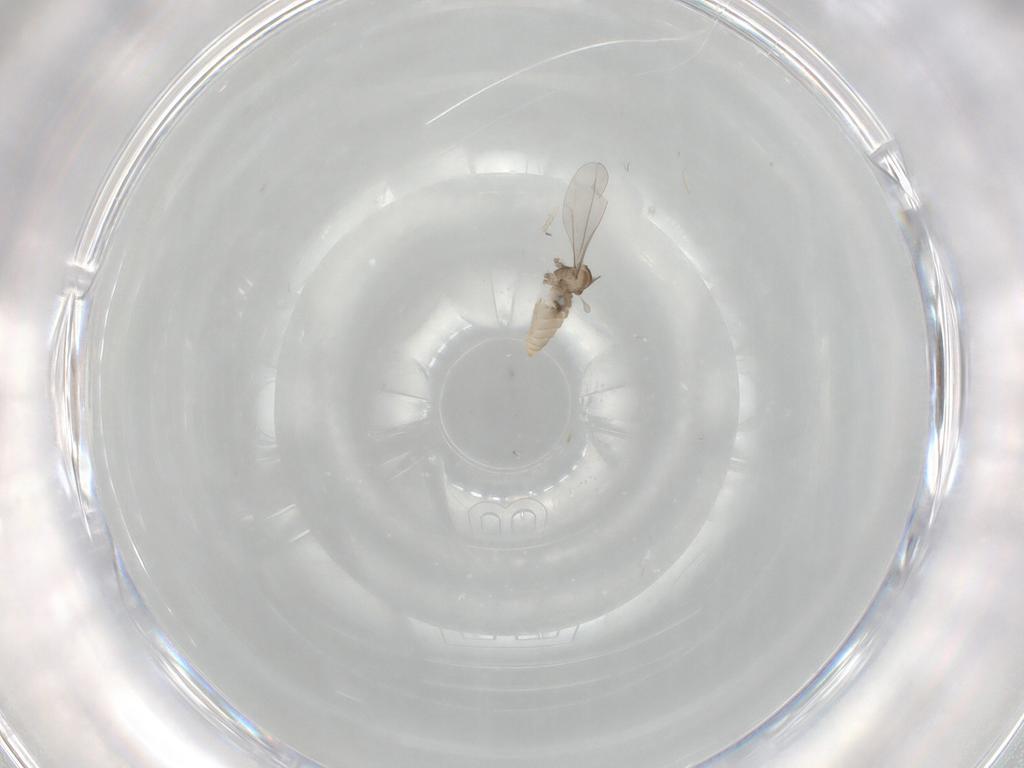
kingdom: Animalia
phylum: Arthropoda
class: Insecta
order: Diptera
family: Cecidomyiidae
